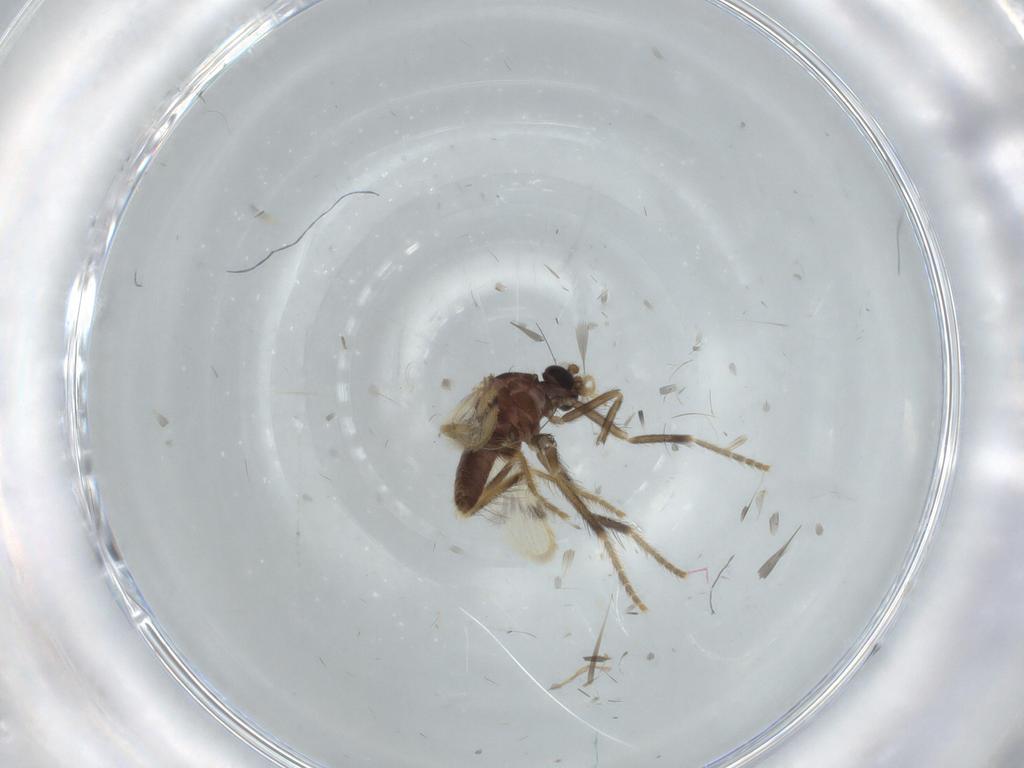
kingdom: Animalia
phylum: Arthropoda
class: Insecta
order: Diptera
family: Corethrellidae
